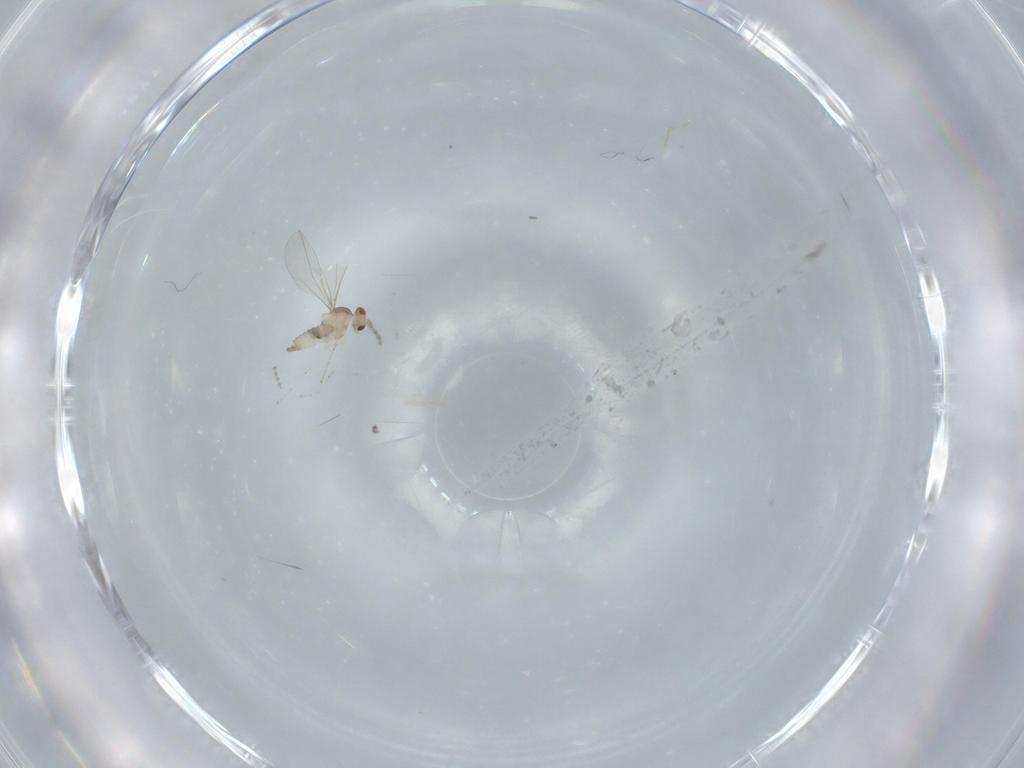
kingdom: Animalia
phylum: Arthropoda
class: Insecta
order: Diptera
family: Cecidomyiidae
